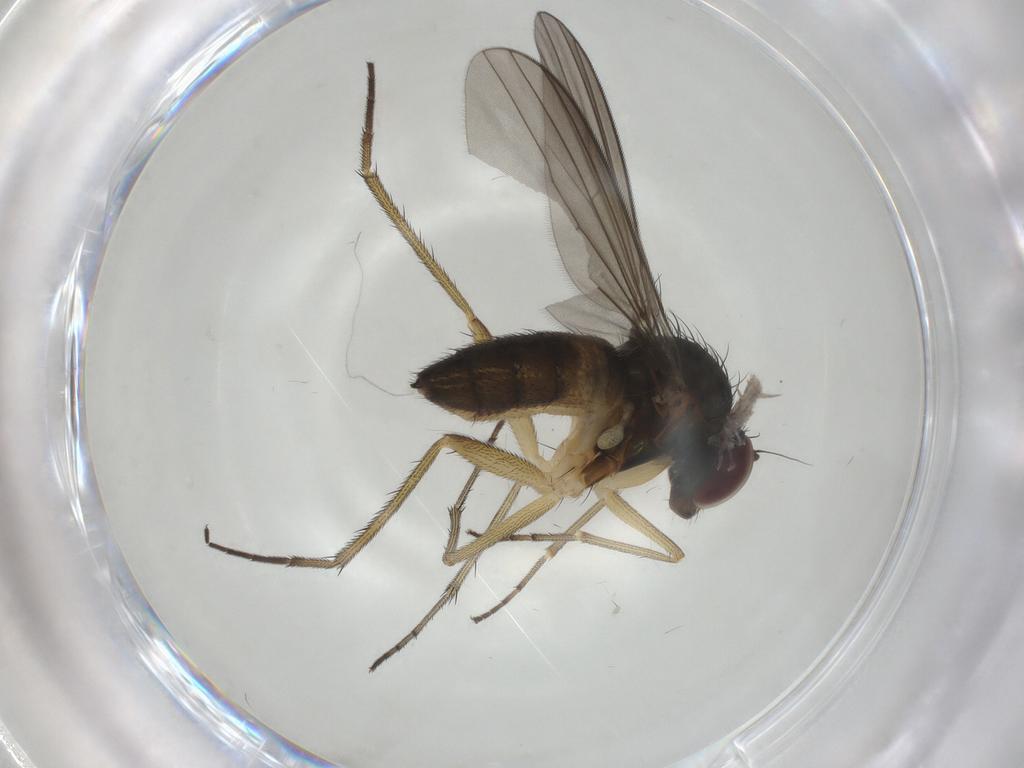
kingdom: Animalia
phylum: Arthropoda
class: Insecta
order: Diptera
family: Dolichopodidae
